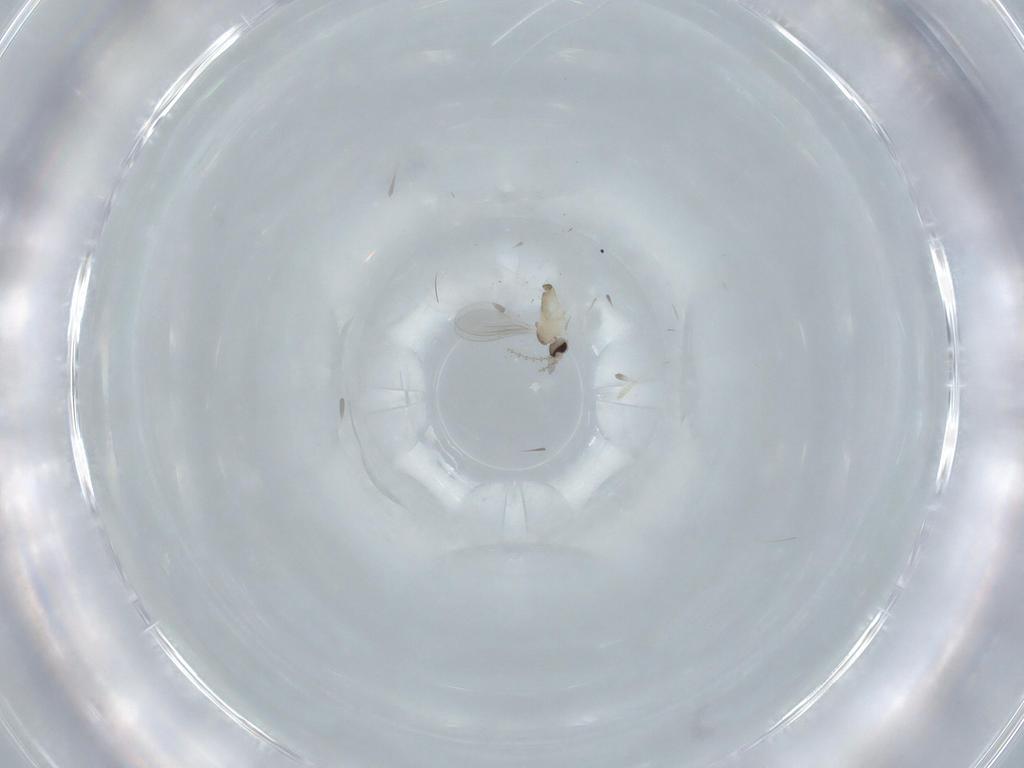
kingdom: Animalia
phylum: Arthropoda
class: Insecta
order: Diptera
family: Cecidomyiidae
